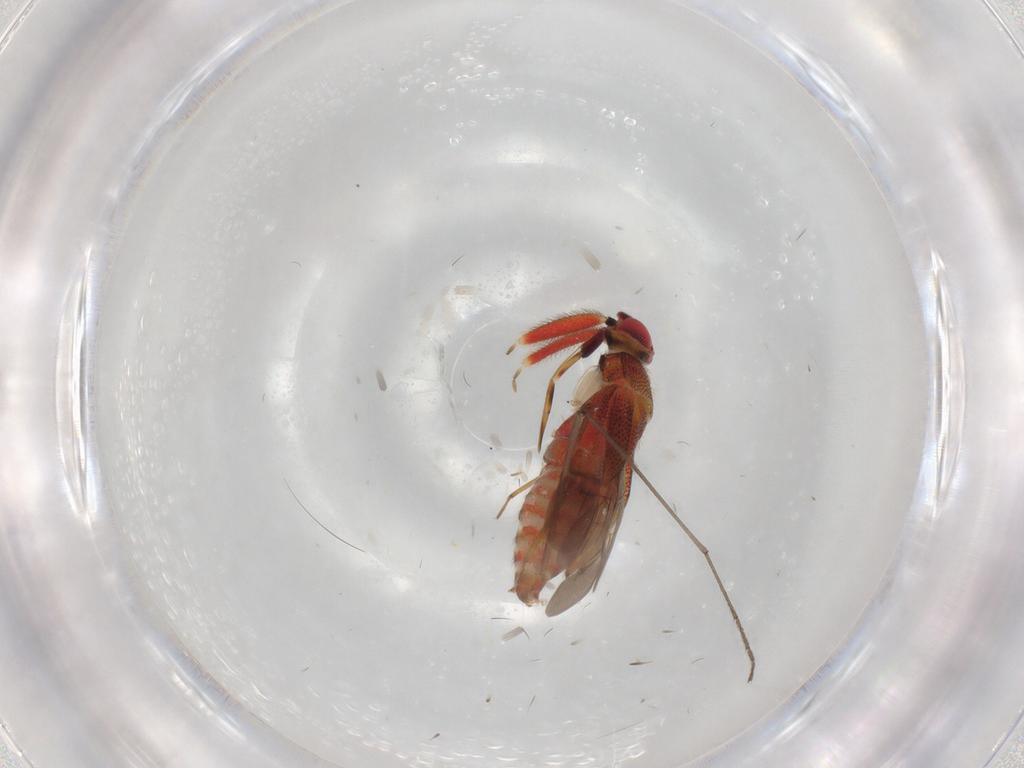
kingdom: Animalia
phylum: Arthropoda
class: Insecta
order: Hemiptera
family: Miridae
